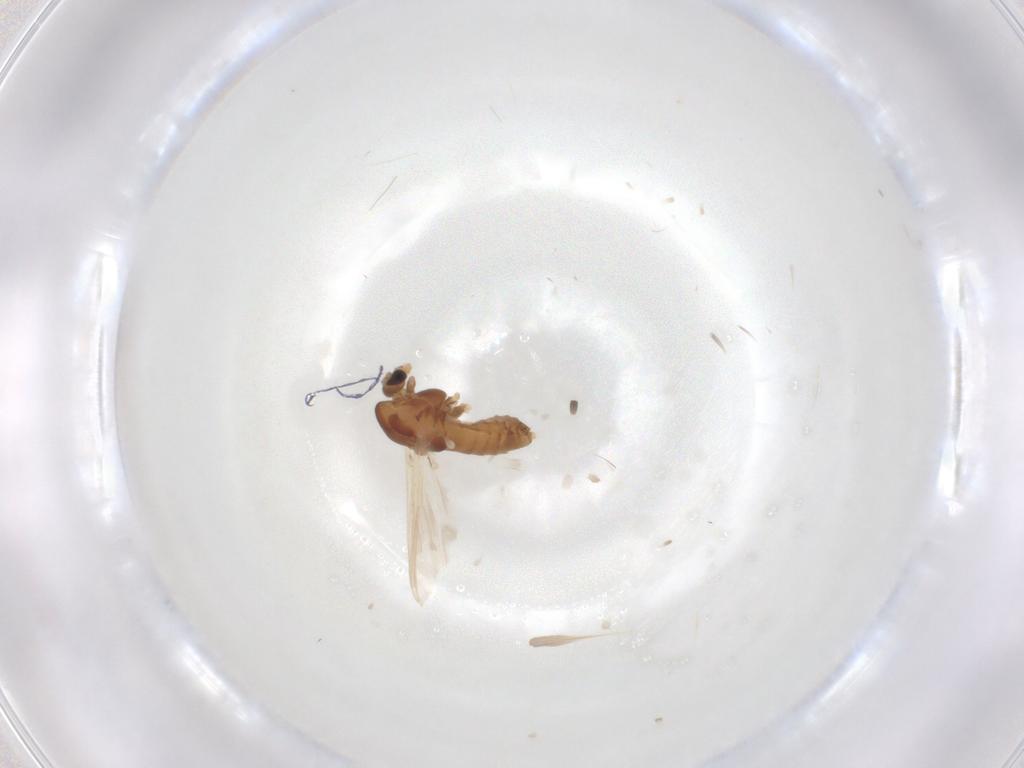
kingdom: Animalia
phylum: Arthropoda
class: Insecta
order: Diptera
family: Chironomidae
